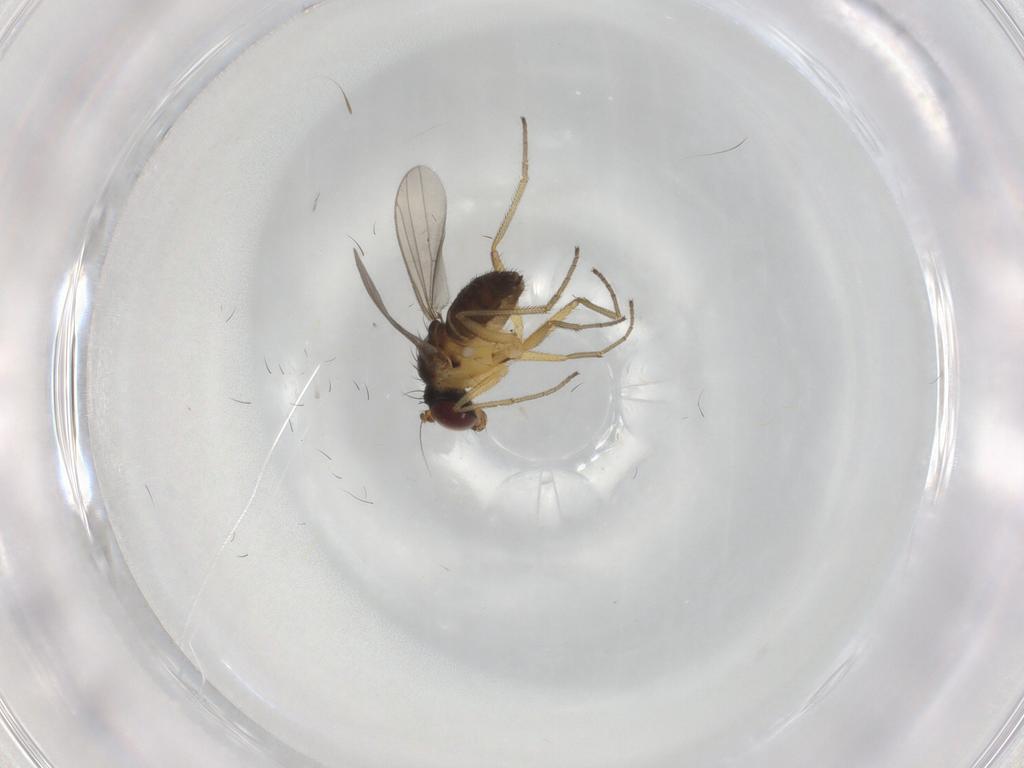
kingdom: Animalia
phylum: Arthropoda
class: Insecta
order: Diptera
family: Dolichopodidae
